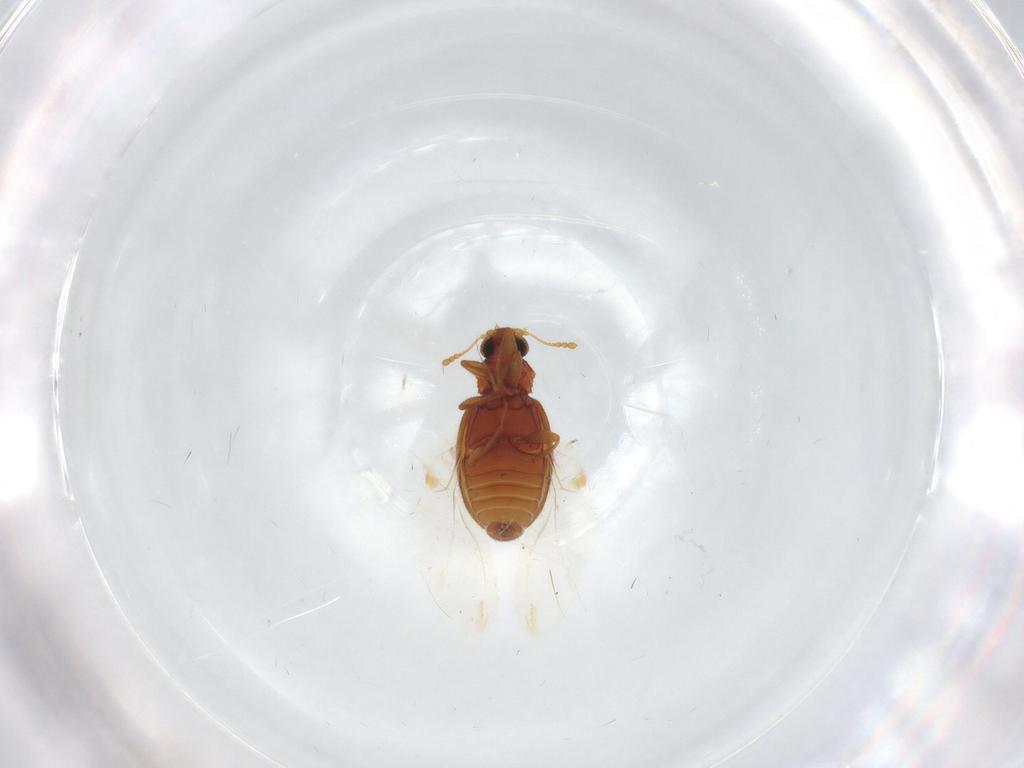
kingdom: Animalia
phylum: Arthropoda
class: Insecta
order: Coleoptera
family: Latridiidae
